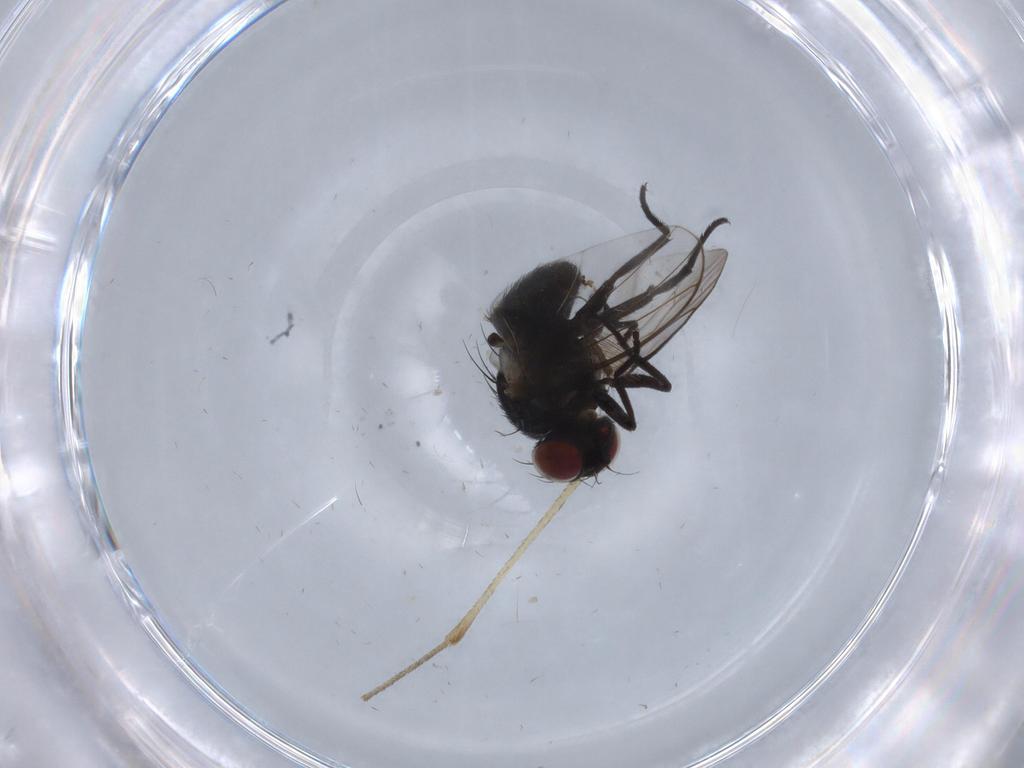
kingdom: Animalia
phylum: Arthropoda
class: Insecta
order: Diptera
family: Culicidae
